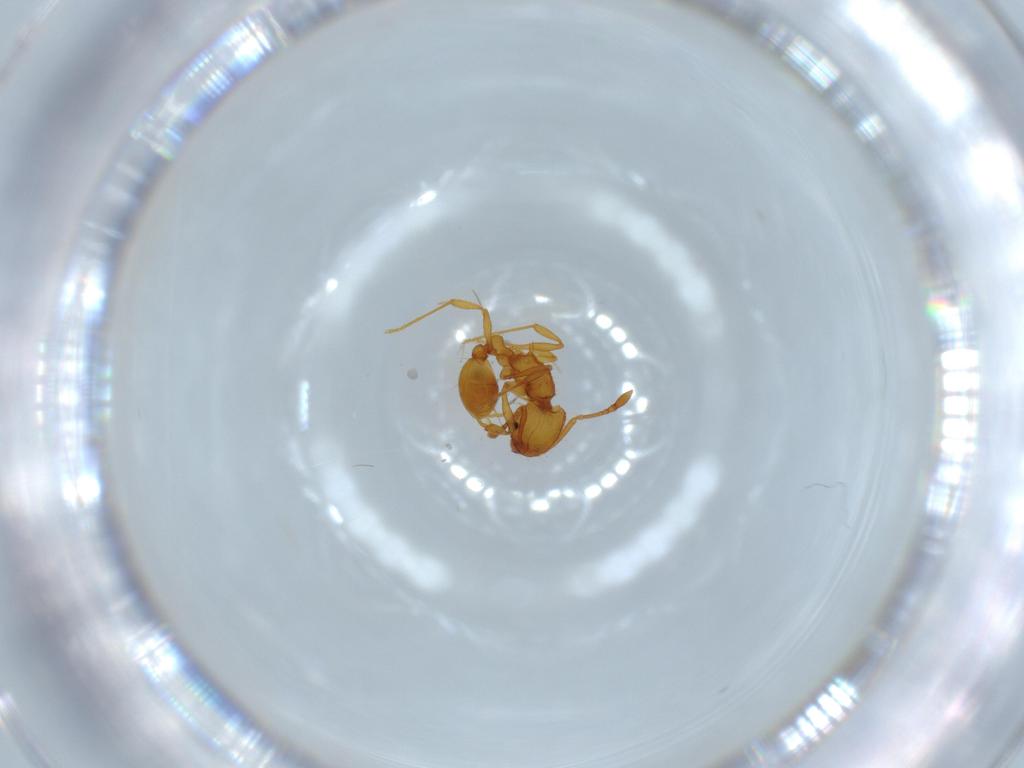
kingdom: Animalia
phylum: Arthropoda
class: Insecta
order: Hymenoptera
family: Formicidae
